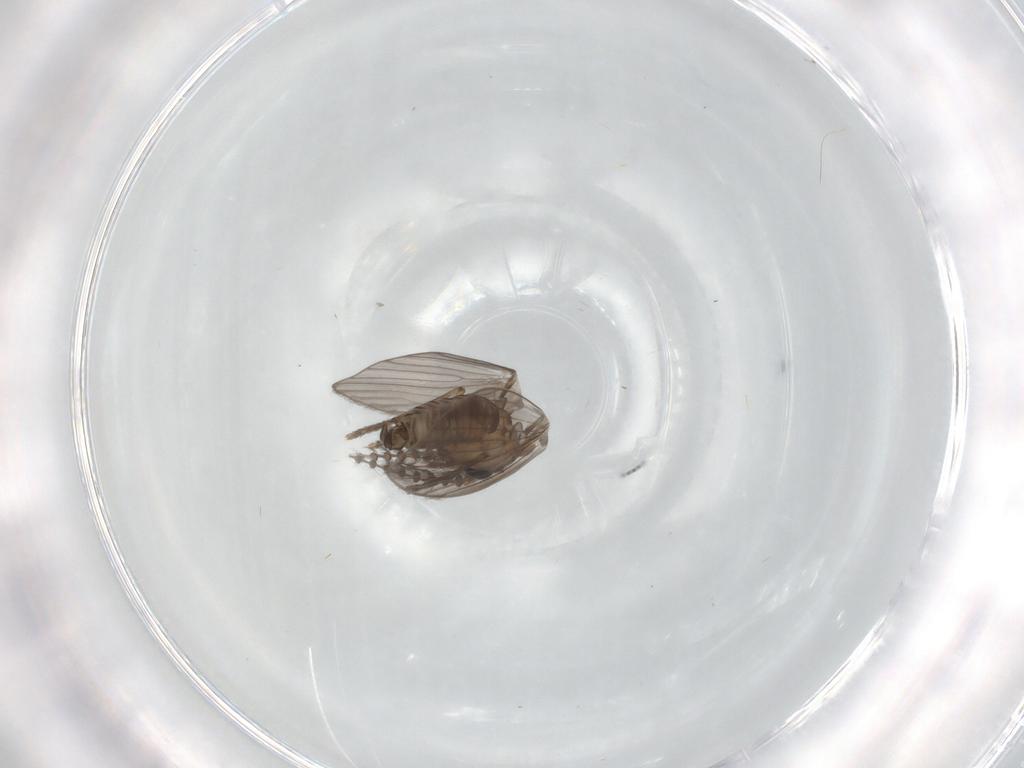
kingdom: Animalia
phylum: Arthropoda
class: Insecta
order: Diptera
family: Psychodidae
